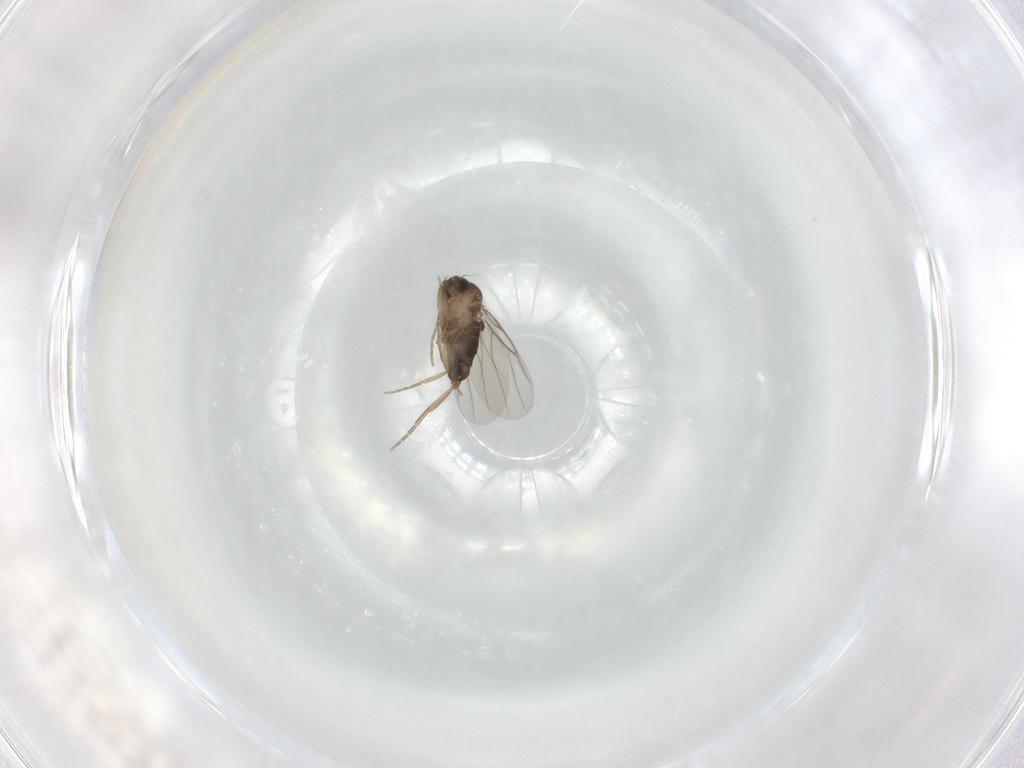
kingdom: Animalia
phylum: Arthropoda
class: Insecta
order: Diptera
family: Phoridae
